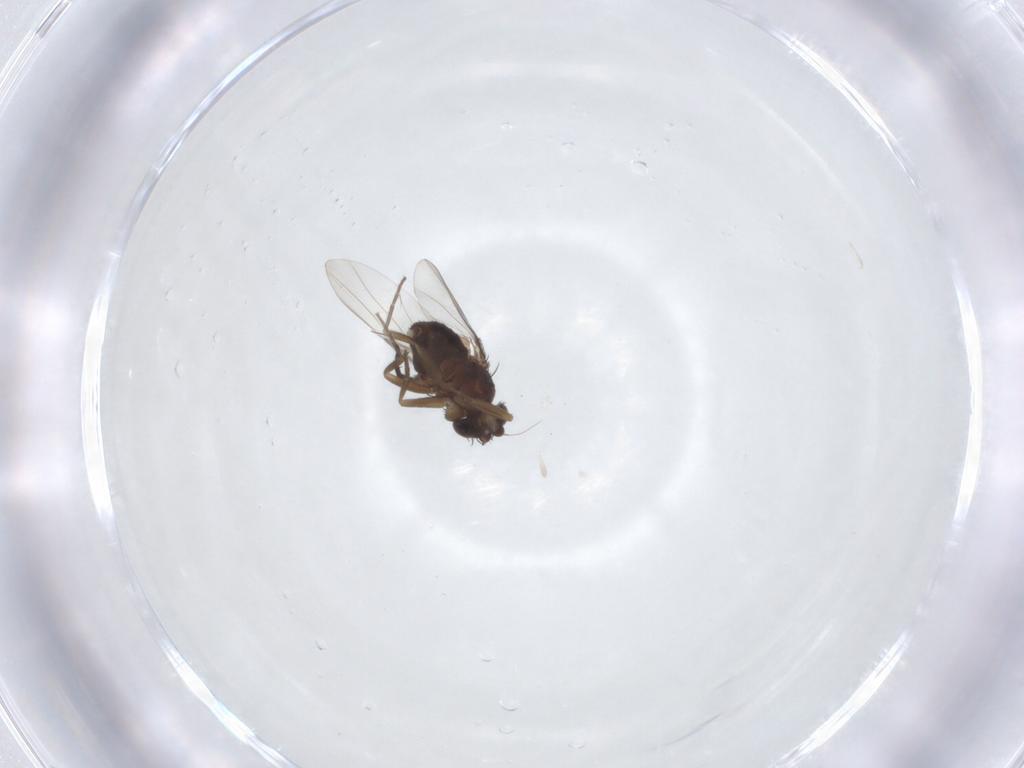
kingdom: Animalia
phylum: Arthropoda
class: Insecta
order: Diptera
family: Phoridae
